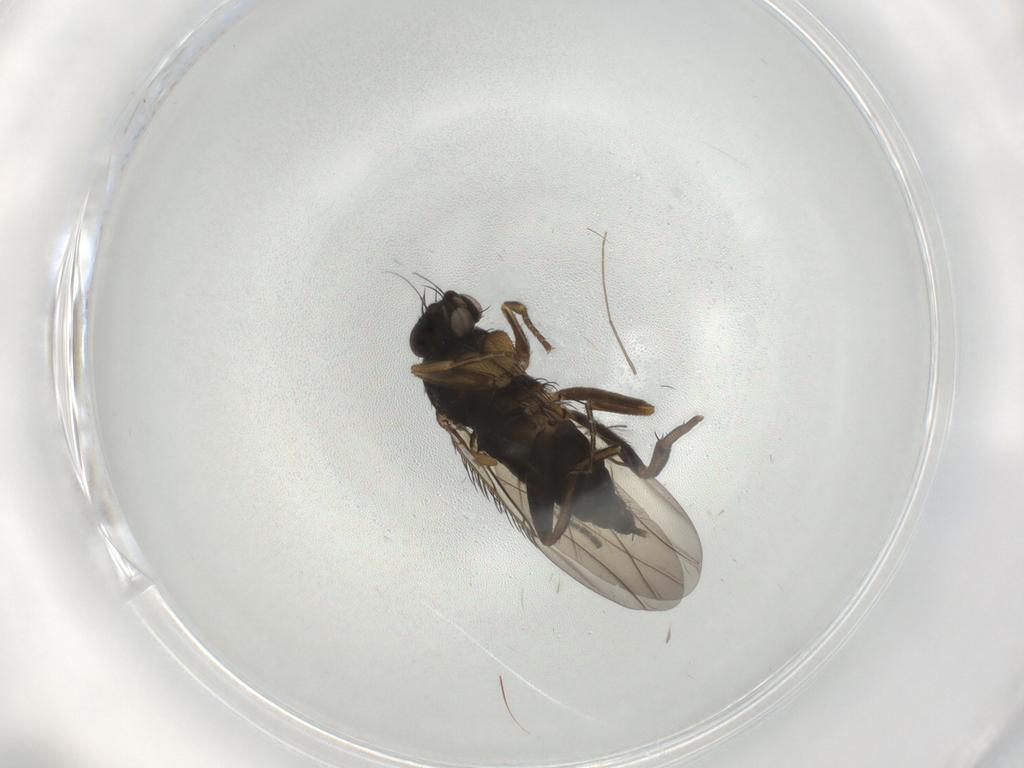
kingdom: Animalia
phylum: Arthropoda
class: Insecta
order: Diptera
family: Phoridae
